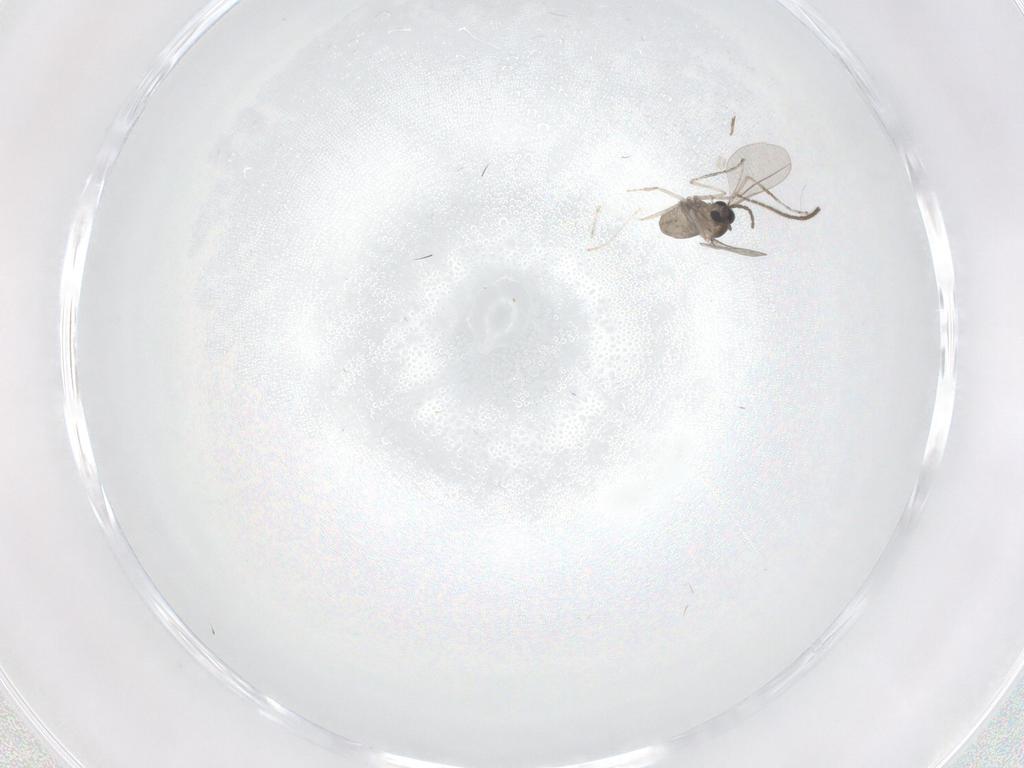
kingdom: Animalia
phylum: Arthropoda
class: Insecta
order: Diptera
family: Cecidomyiidae
